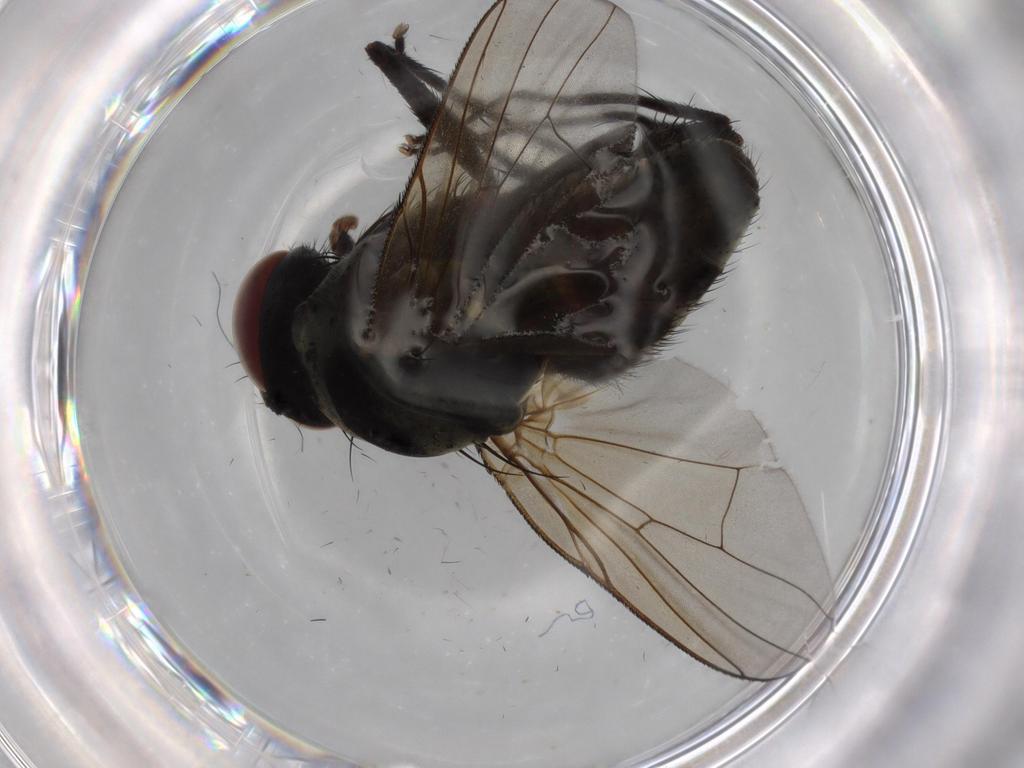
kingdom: Animalia
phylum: Arthropoda
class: Insecta
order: Diptera
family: Muscidae
